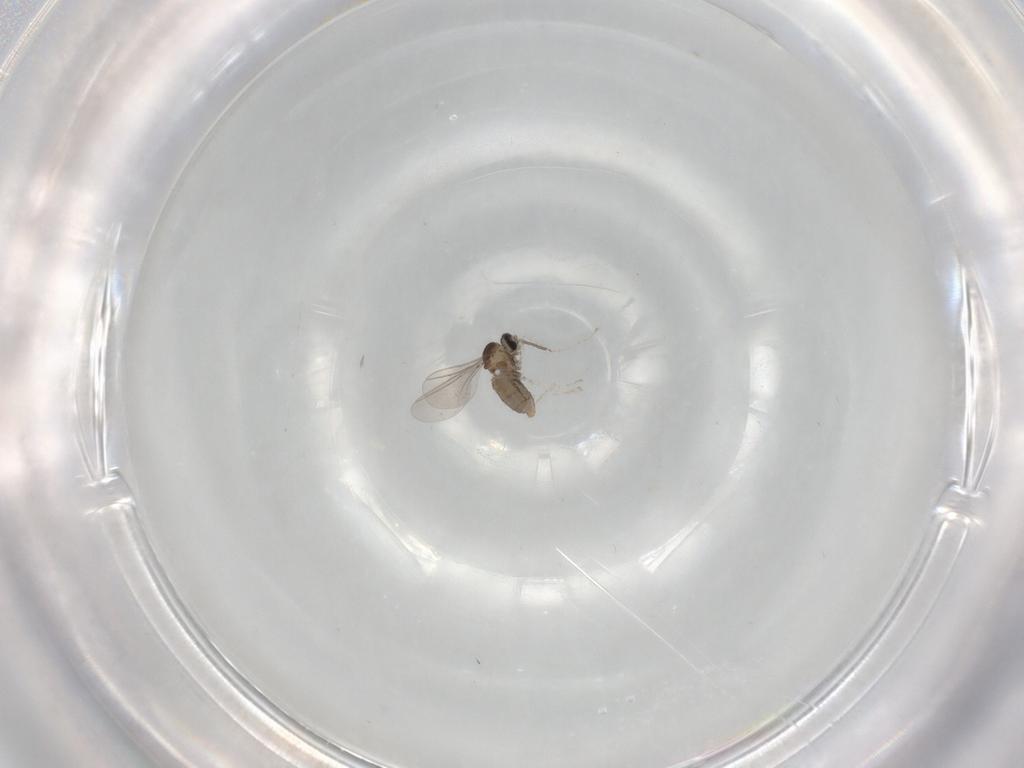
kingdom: Animalia
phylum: Arthropoda
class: Insecta
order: Diptera
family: Cecidomyiidae
